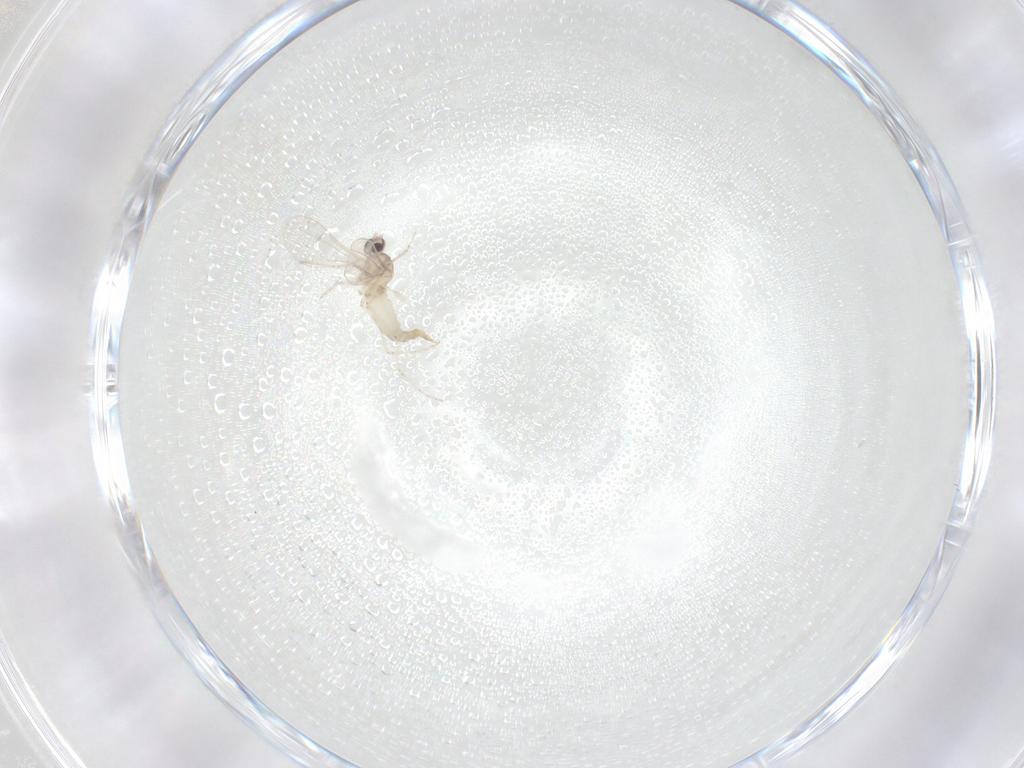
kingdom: Animalia
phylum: Arthropoda
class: Insecta
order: Diptera
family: Cecidomyiidae
